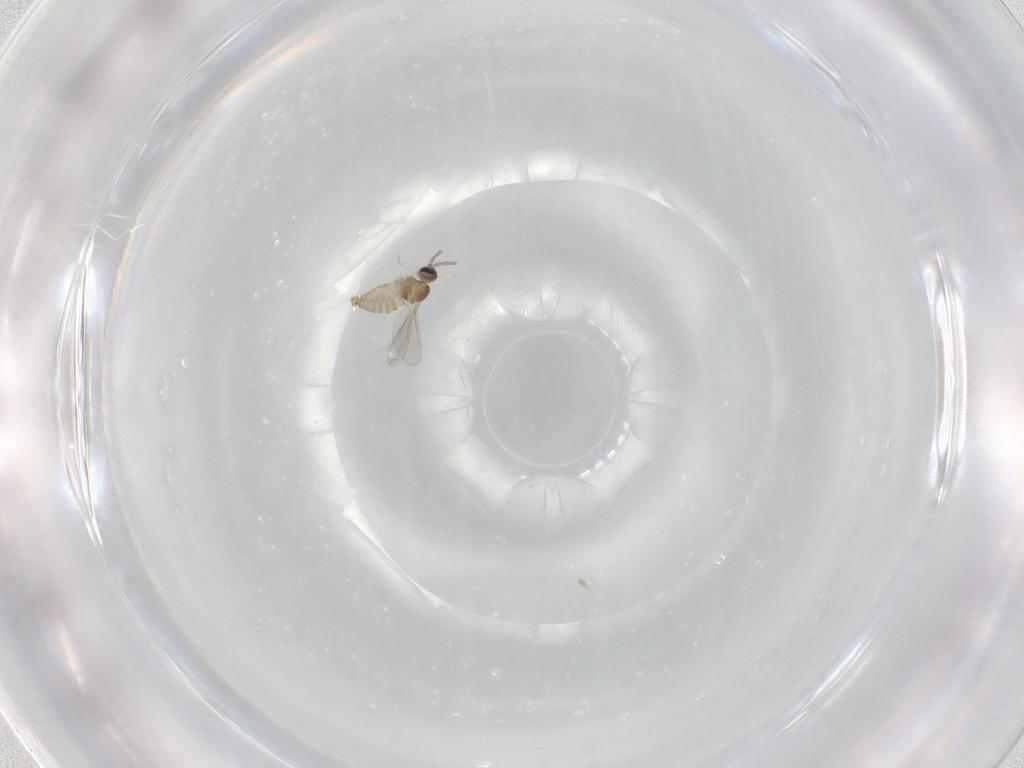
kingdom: Animalia
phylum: Arthropoda
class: Insecta
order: Diptera
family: Cecidomyiidae
